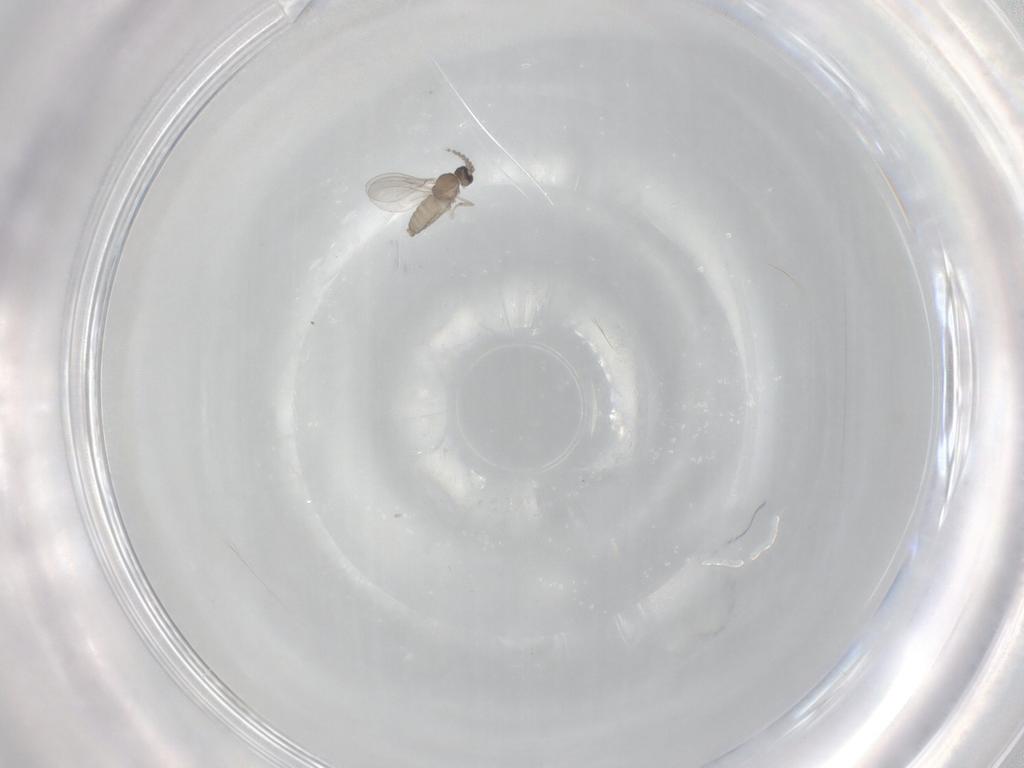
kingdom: Animalia
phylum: Arthropoda
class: Insecta
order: Diptera
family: Cecidomyiidae
